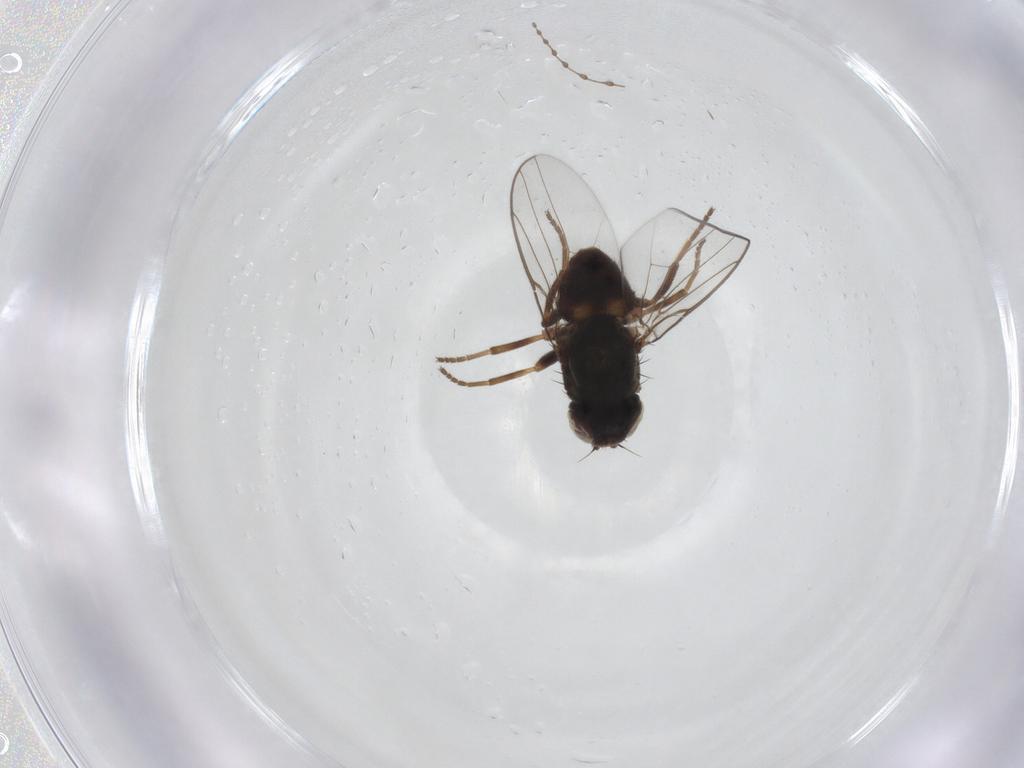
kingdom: Animalia
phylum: Arthropoda
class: Insecta
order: Diptera
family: Chloropidae
